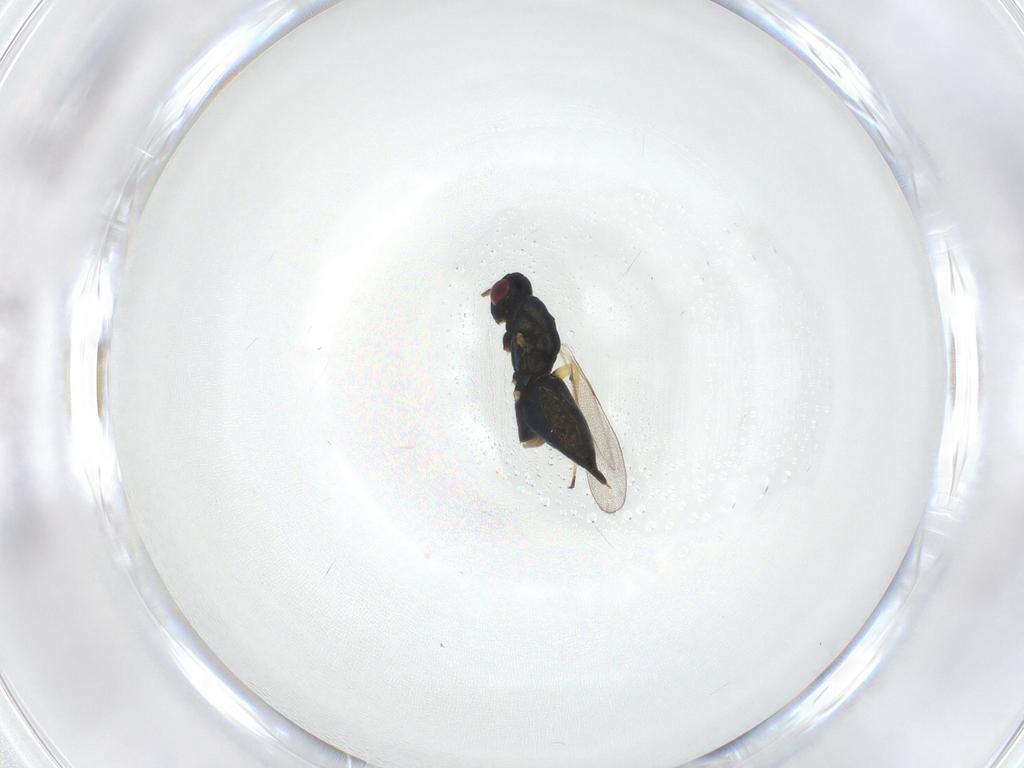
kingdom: Animalia
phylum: Arthropoda
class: Insecta
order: Hymenoptera
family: Eulophidae
